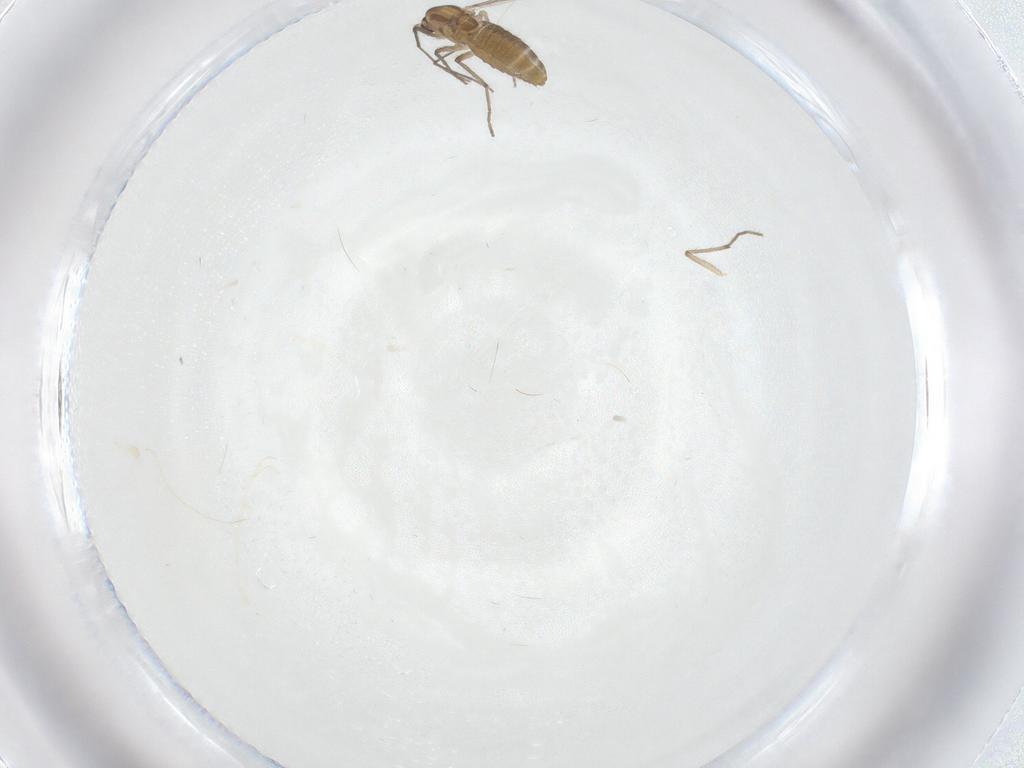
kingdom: Animalia
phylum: Arthropoda
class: Insecta
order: Diptera
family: Chironomidae
